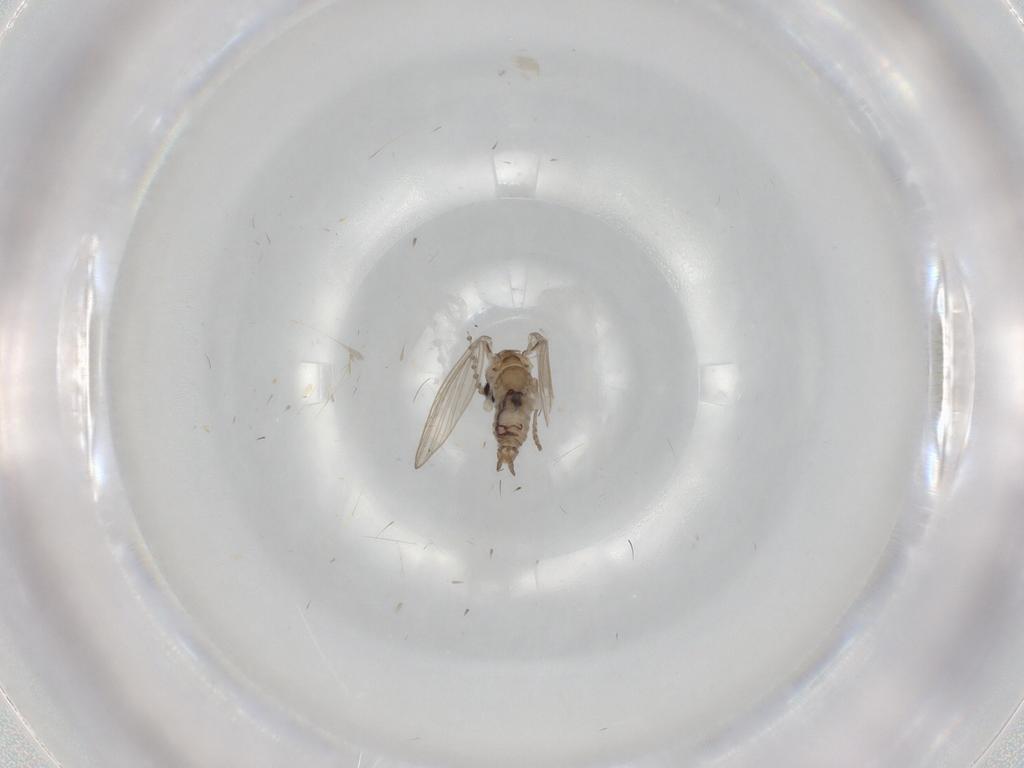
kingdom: Animalia
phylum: Arthropoda
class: Insecta
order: Diptera
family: Psychodidae
